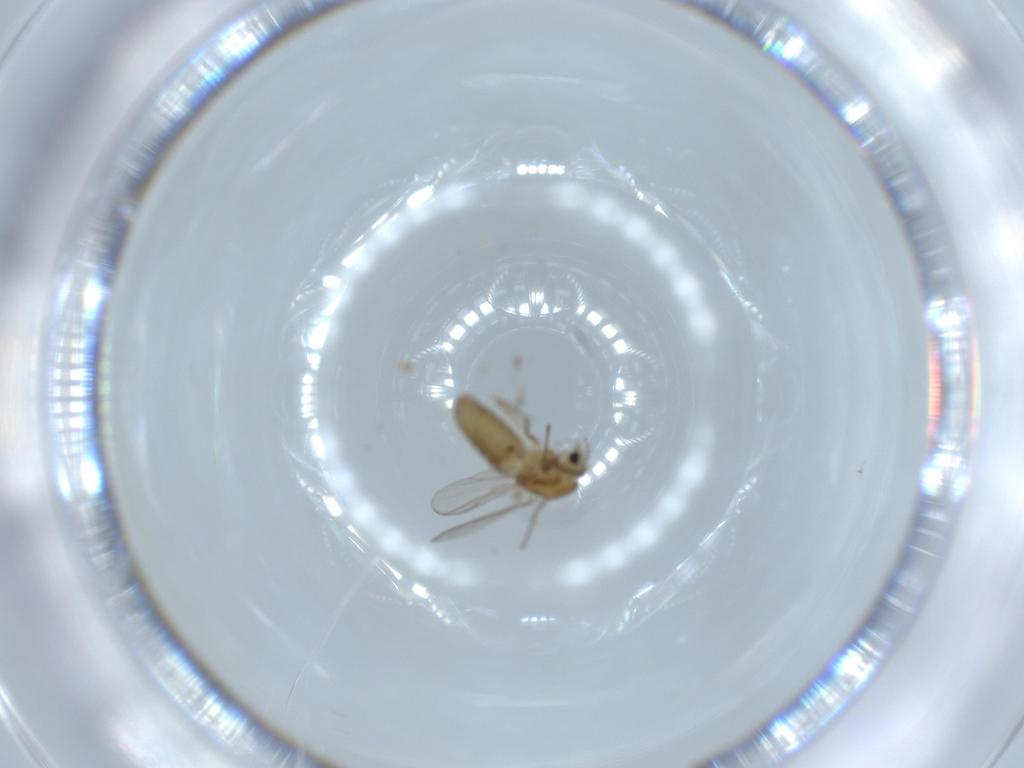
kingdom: Animalia
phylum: Arthropoda
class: Insecta
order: Diptera
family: Chironomidae
